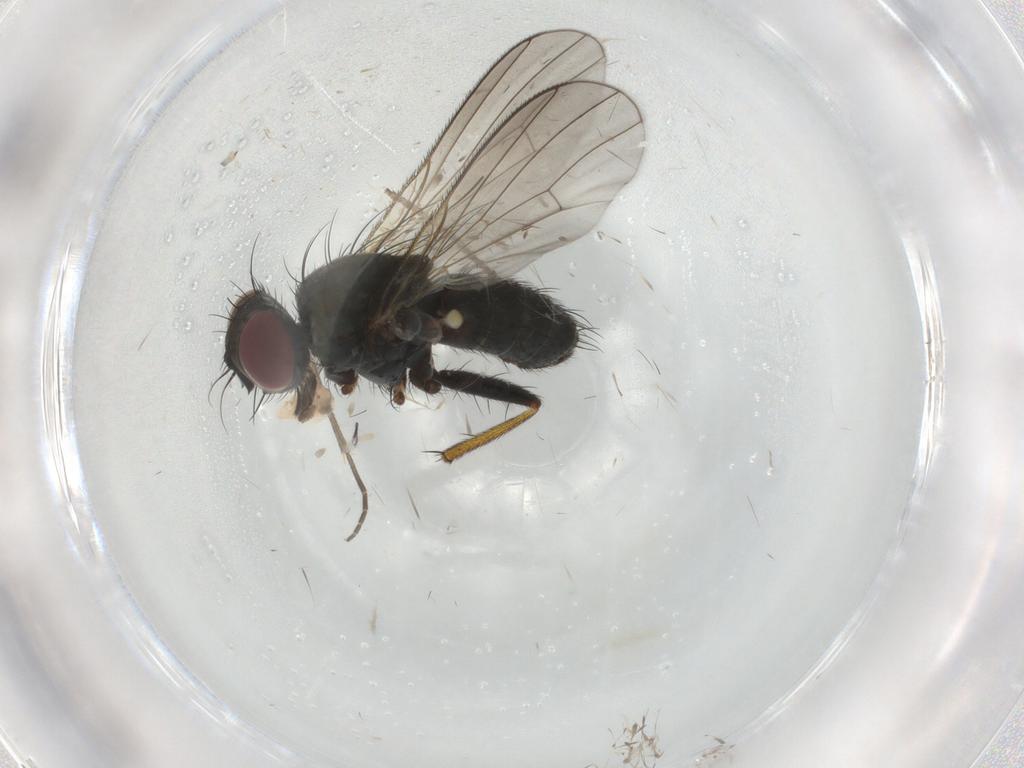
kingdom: Animalia
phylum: Arthropoda
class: Insecta
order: Diptera
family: Muscidae
